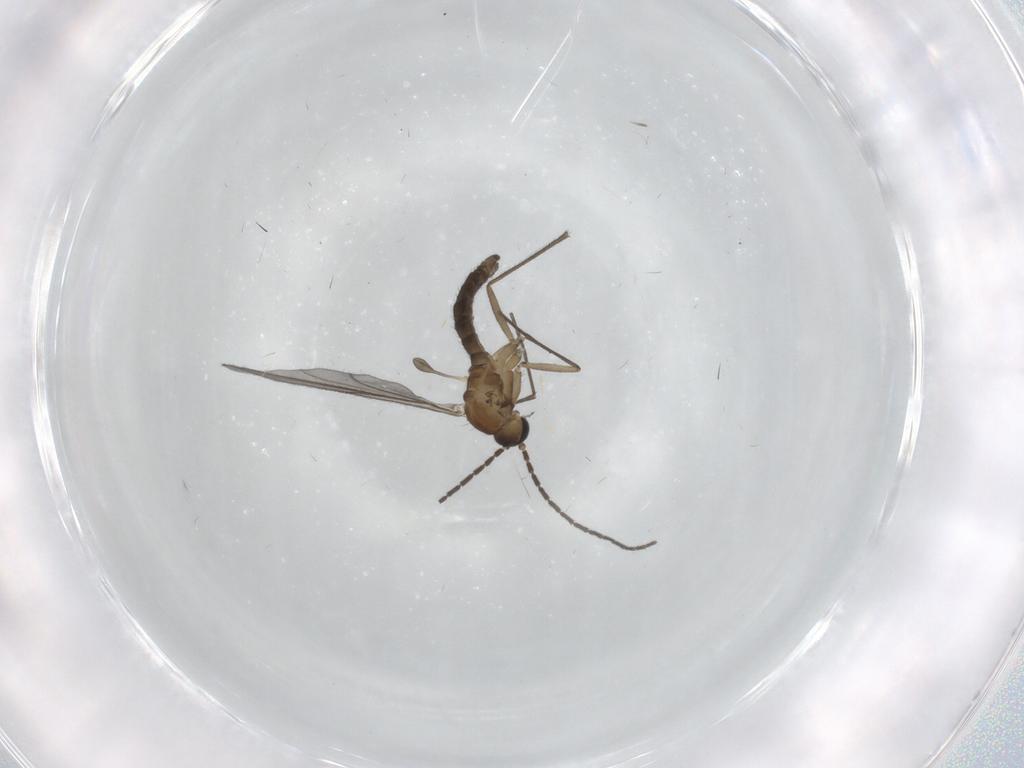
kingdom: Animalia
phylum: Arthropoda
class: Insecta
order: Diptera
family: Sciaridae
